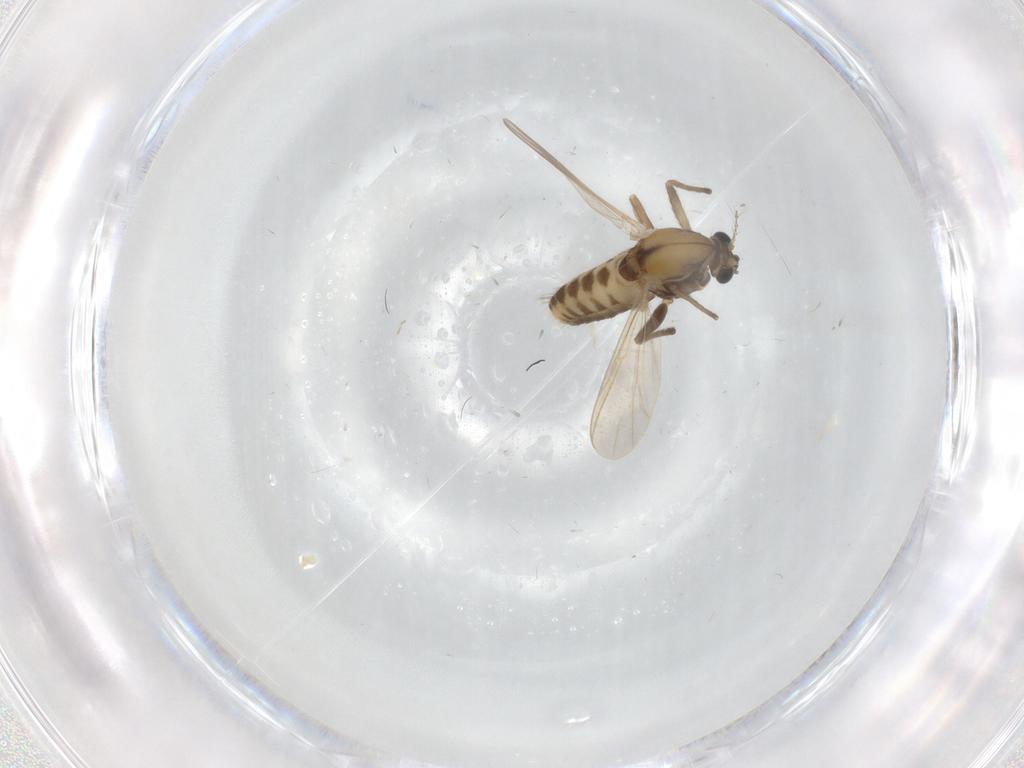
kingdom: Animalia
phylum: Arthropoda
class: Insecta
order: Diptera
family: Chironomidae
